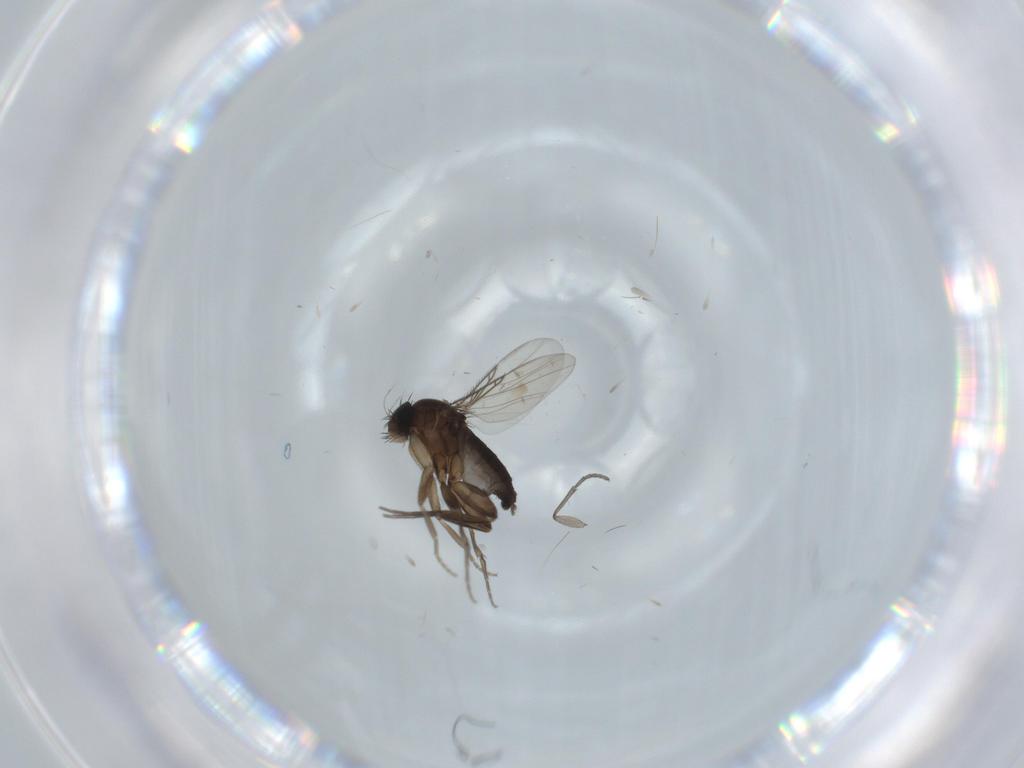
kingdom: Animalia
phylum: Arthropoda
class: Insecta
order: Diptera
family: Phoridae
